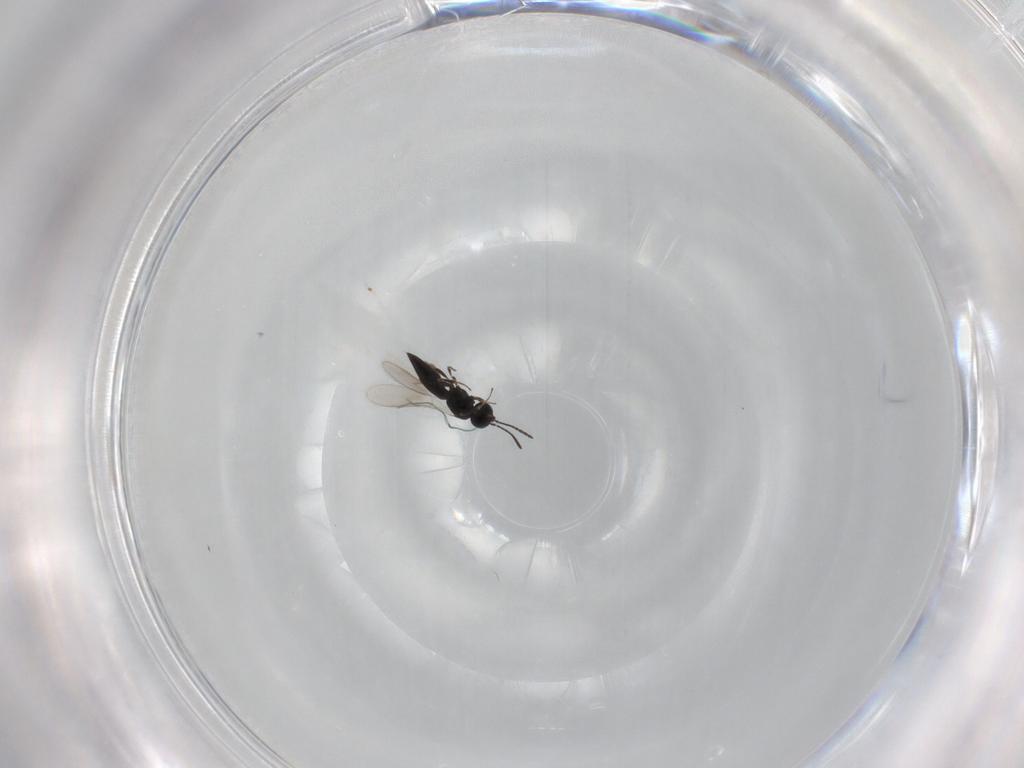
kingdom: Animalia
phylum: Arthropoda
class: Insecta
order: Hymenoptera
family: Scelionidae
